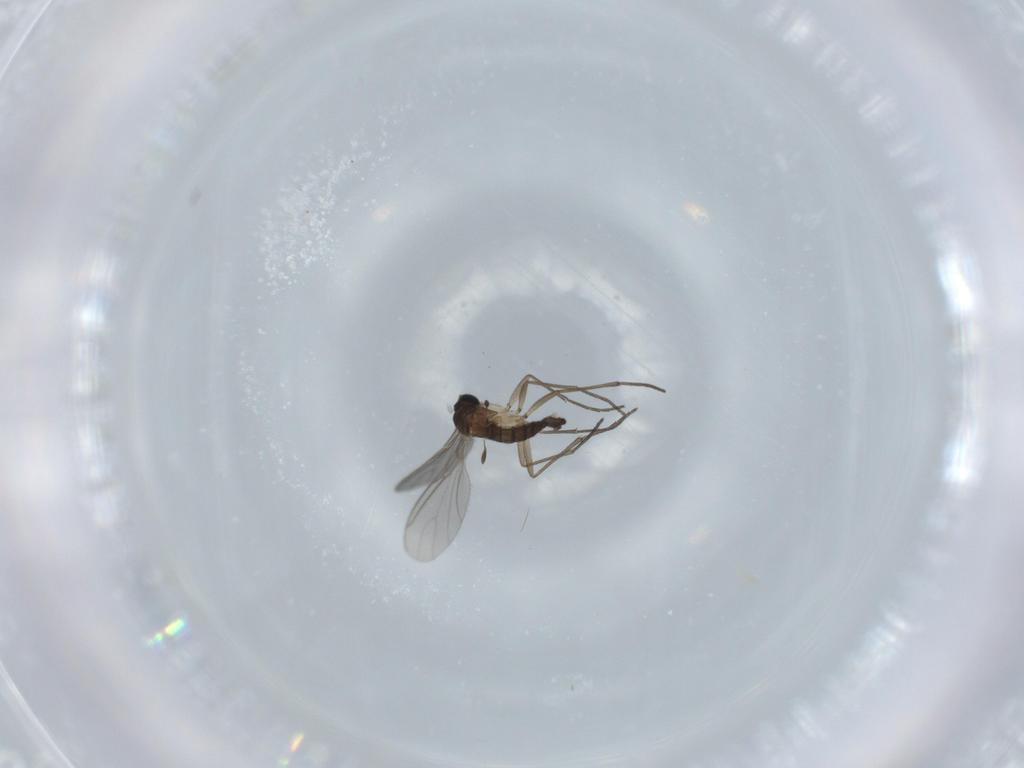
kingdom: Animalia
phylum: Arthropoda
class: Insecta
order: Diptera
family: Sciaridae
